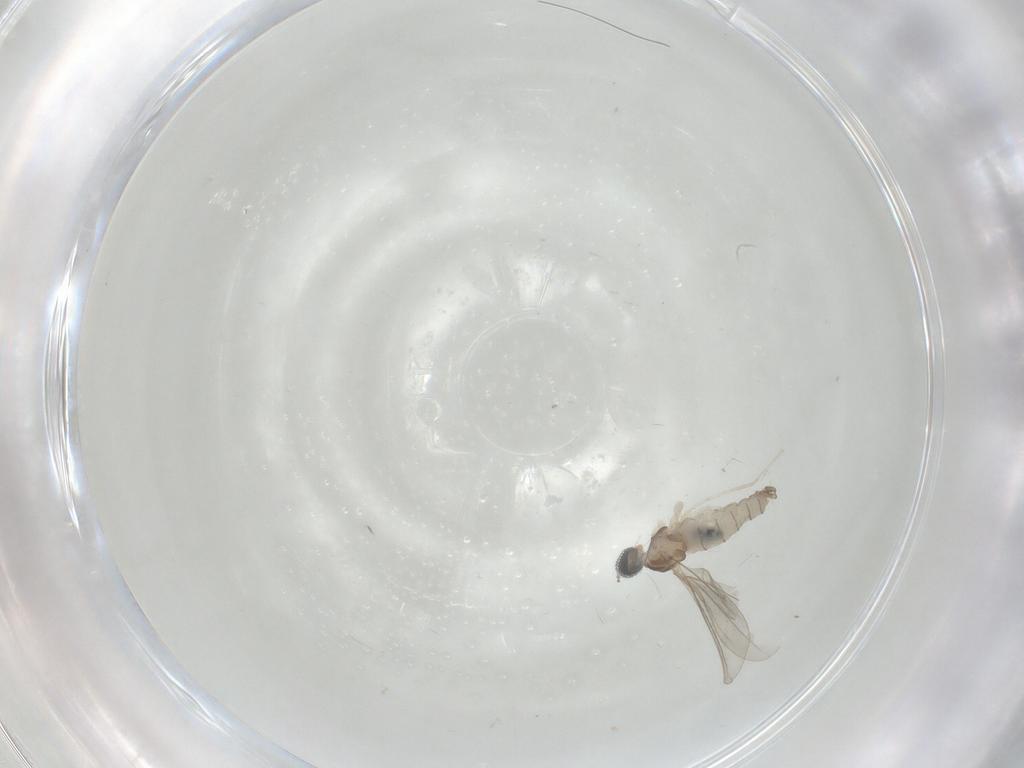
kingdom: Animalia
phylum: Arthropoda
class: Insecta
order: Diptera
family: Cecidomyiidae
